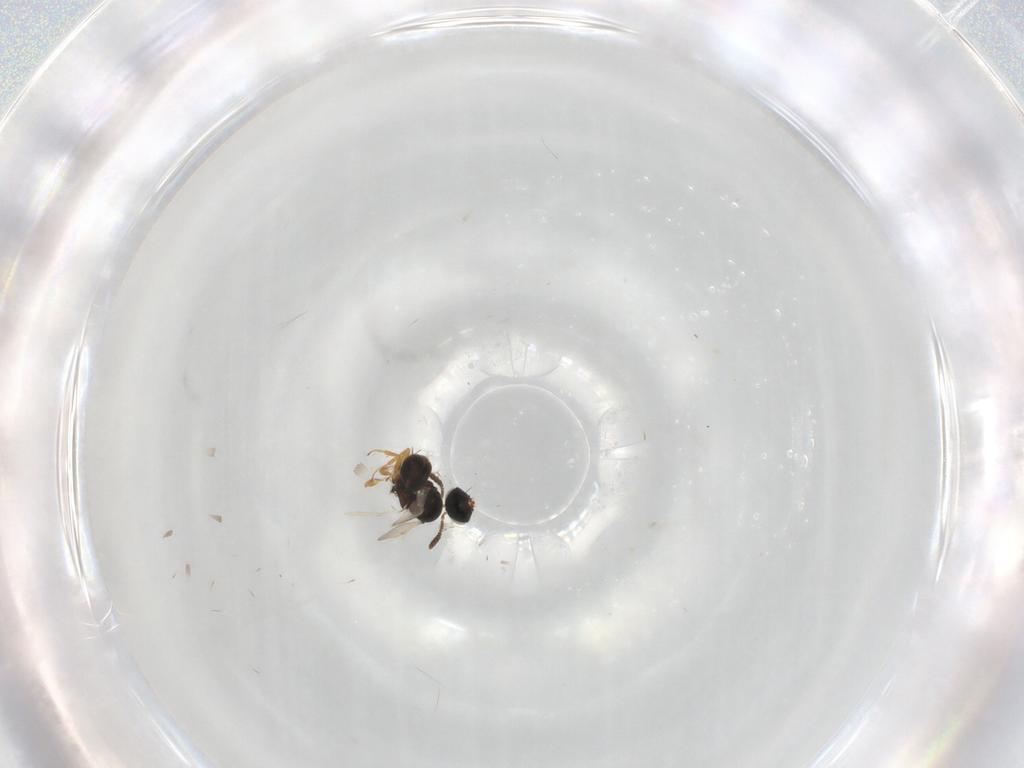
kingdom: Animalia
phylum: Arthropoda
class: Insecta
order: Hymenoptera
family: Scelionidae
